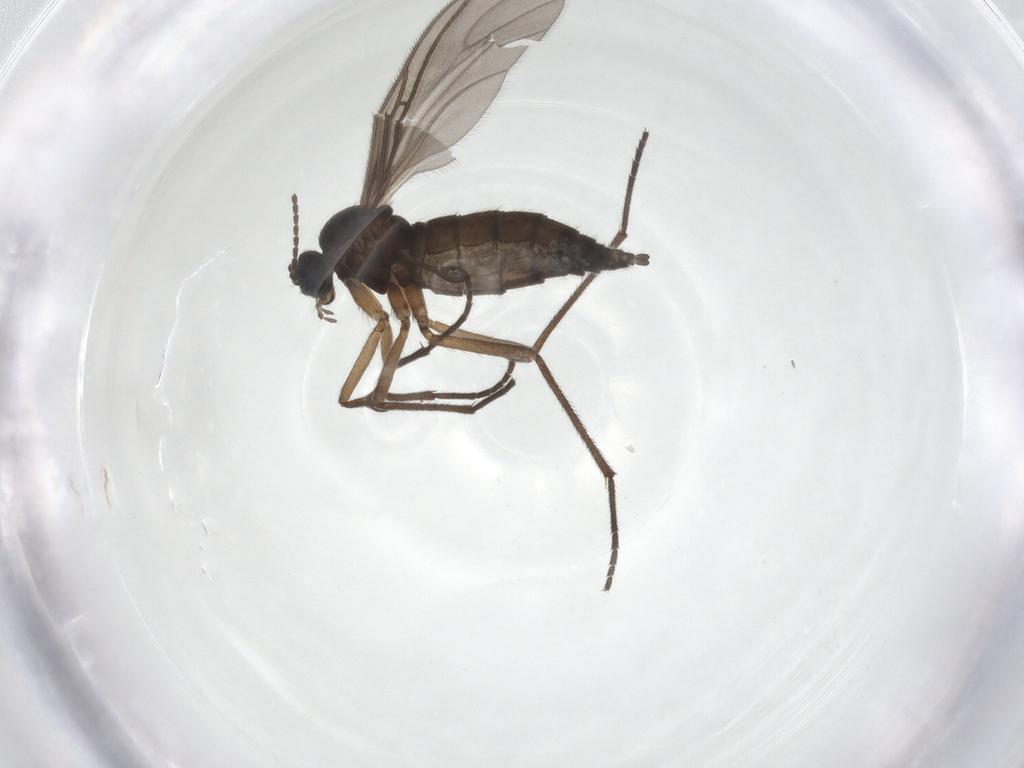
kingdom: Animalia
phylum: Arthropoda
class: Insecta
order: Diptera
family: Sciaridae
